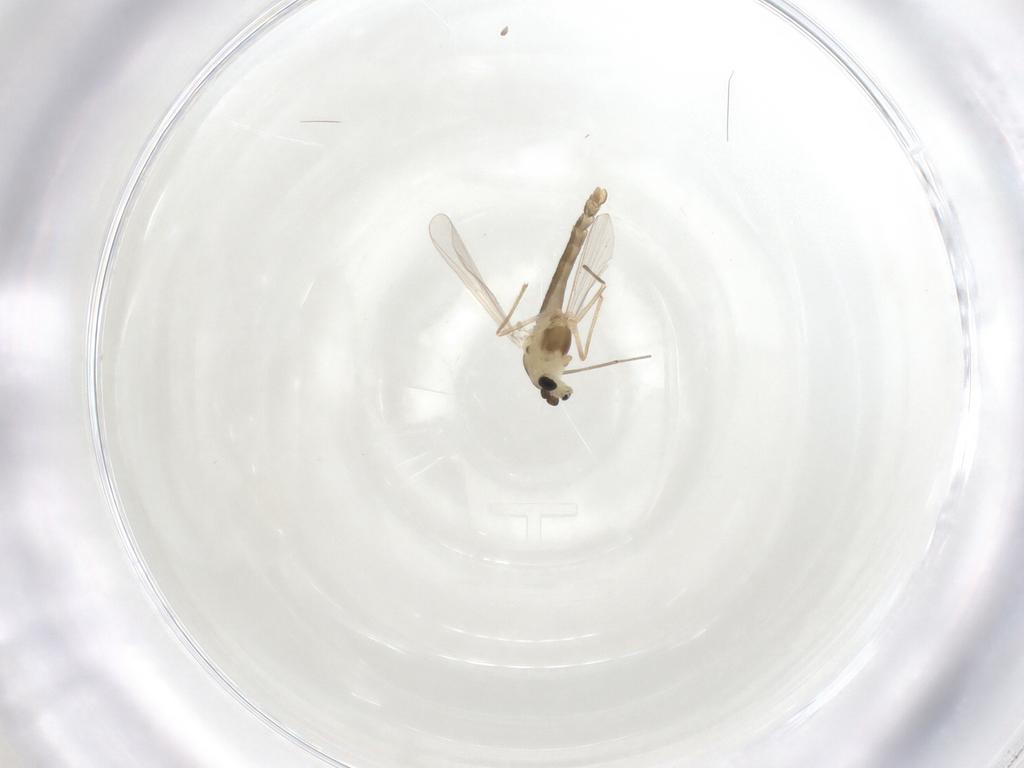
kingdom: Animalia
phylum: Arthropoda
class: Insecta
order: Diptera
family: Chironomidae
